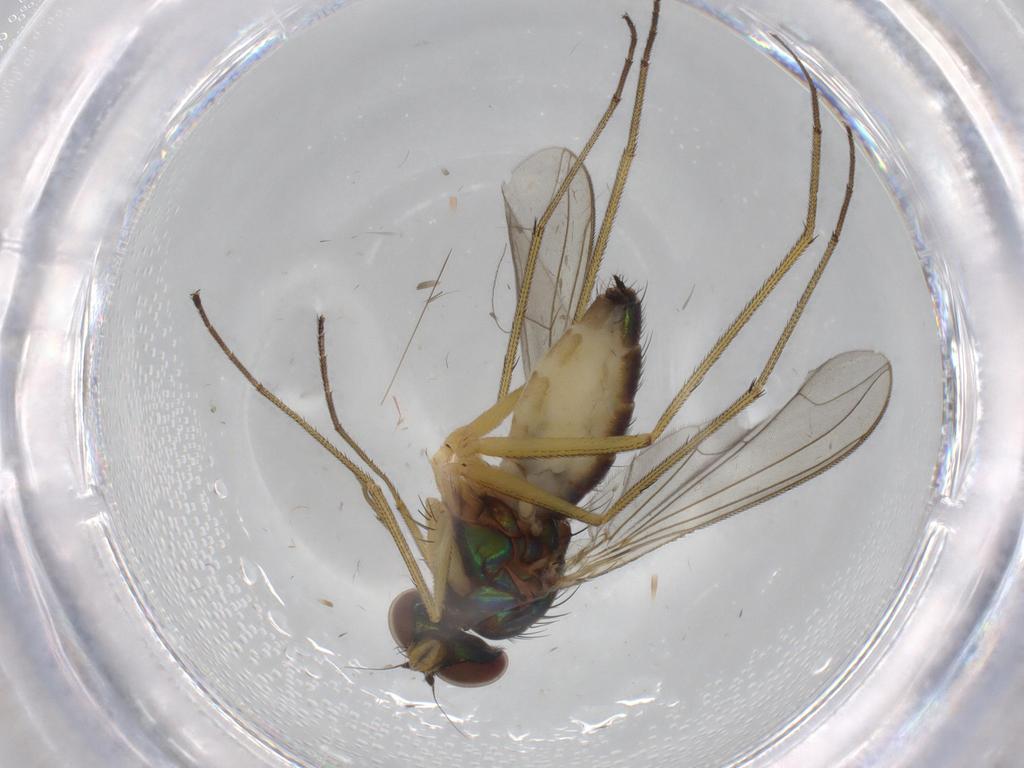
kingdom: Animalia
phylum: Arthropoda
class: Insecta
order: Diptera
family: Dolichopodidae
